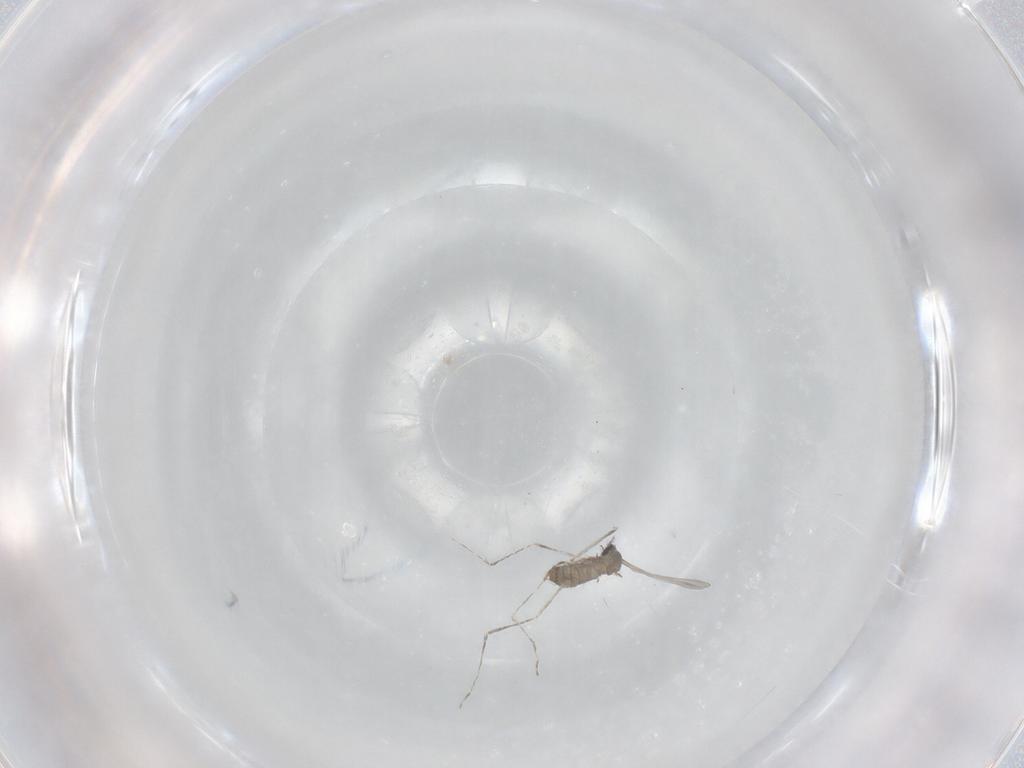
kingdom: Animalia
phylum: Arthropoda
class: Insecta
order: Diptera
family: Cecidomyiidae
